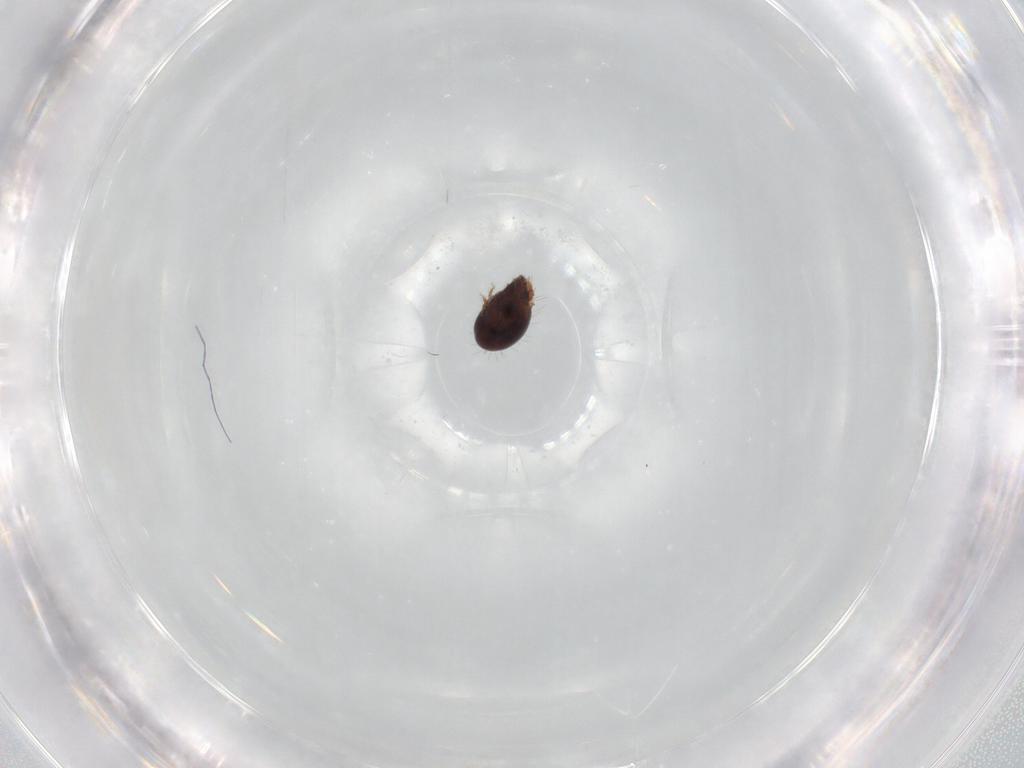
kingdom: Animalia
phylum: Arthropoda
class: Arachnida
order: Sarcoptiformes
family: Humerobatidae
